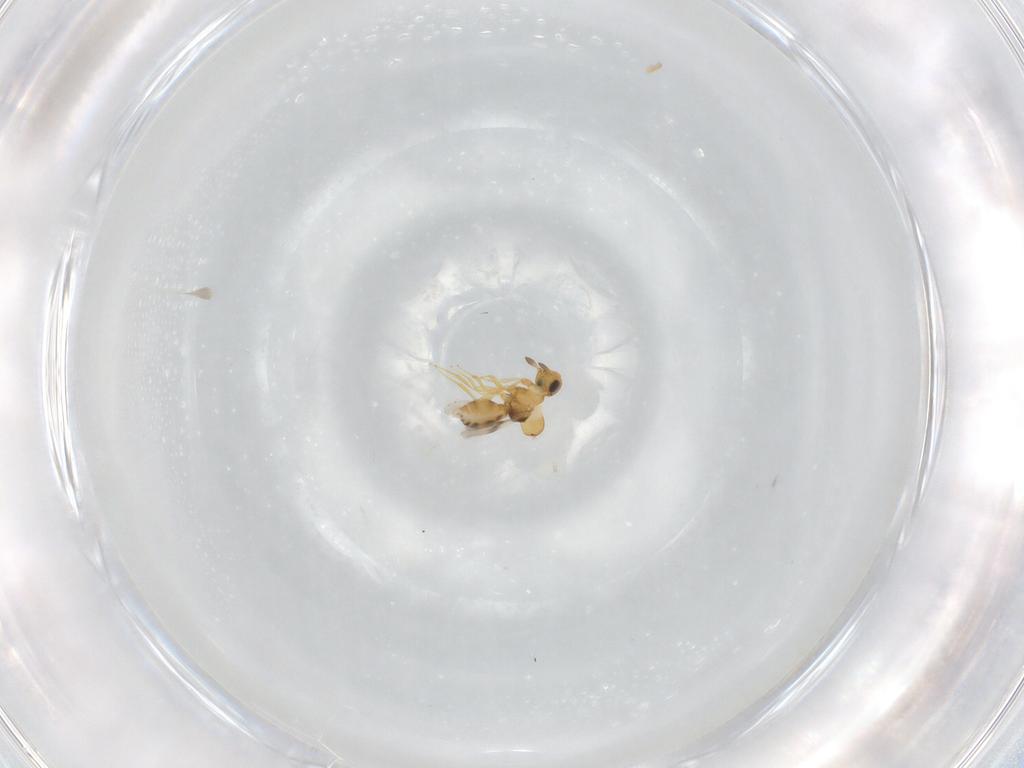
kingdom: Animalia
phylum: Arthropoda
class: Insecta
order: Hymenoptera
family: Scelionidae
